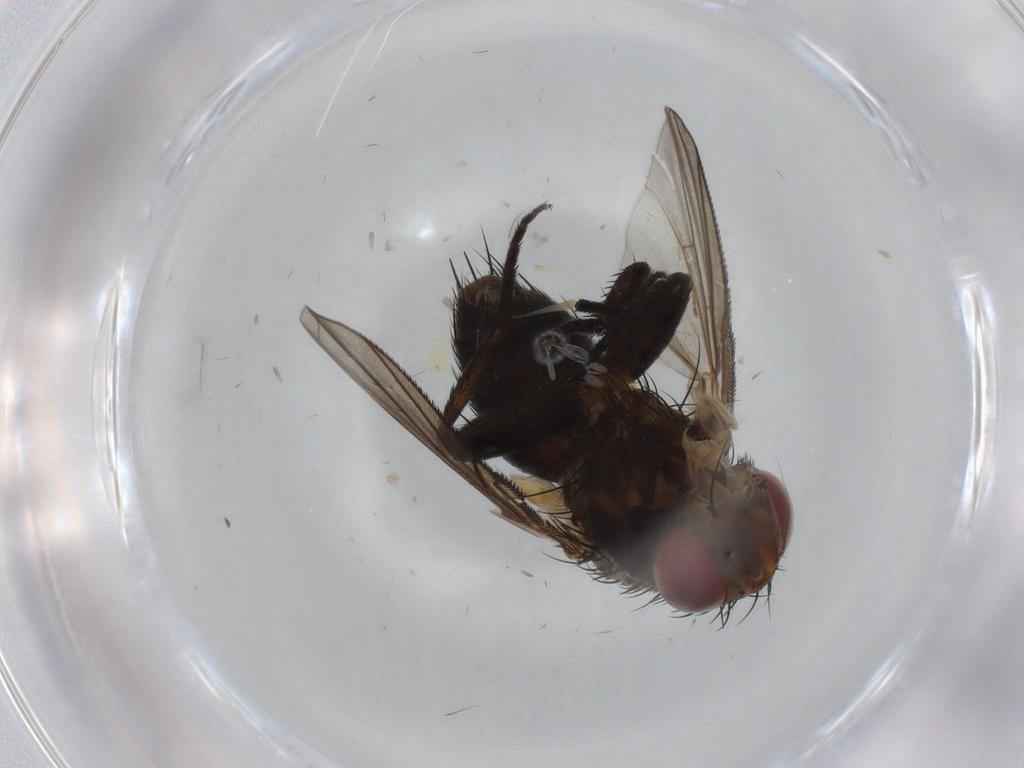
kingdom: Animalia
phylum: Arthropoda
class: Insecta
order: Diptera
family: Tachinidae
